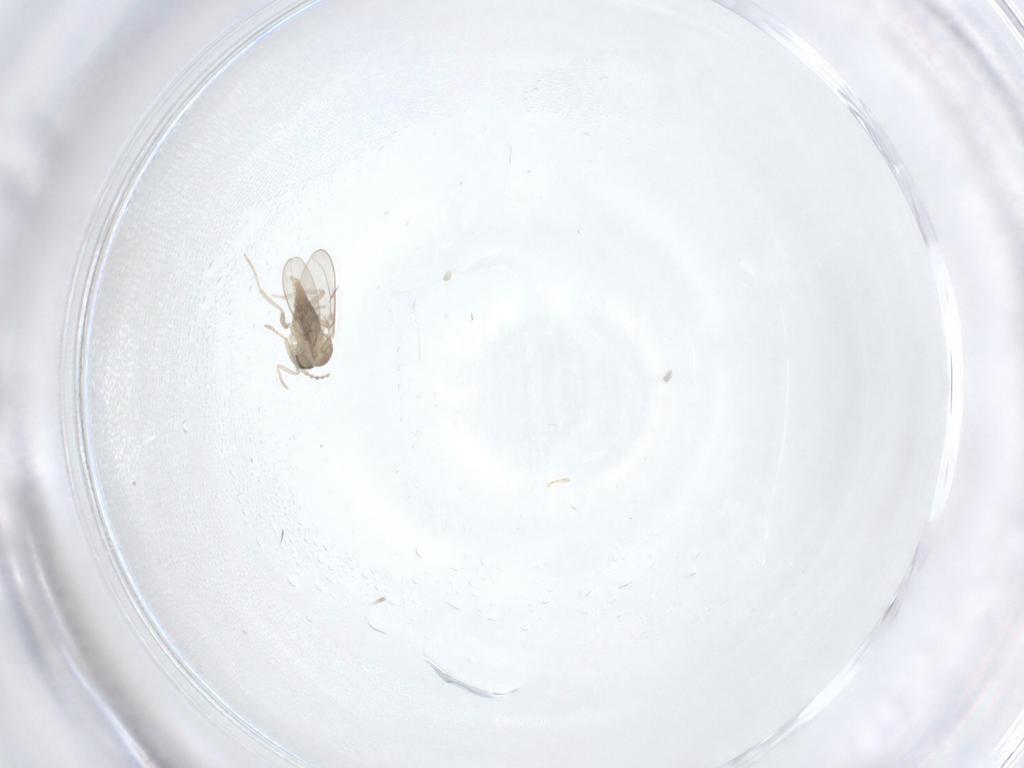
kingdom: Animalia
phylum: Arthropoda
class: Insecta
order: Diptera
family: Cecidomyiidae
